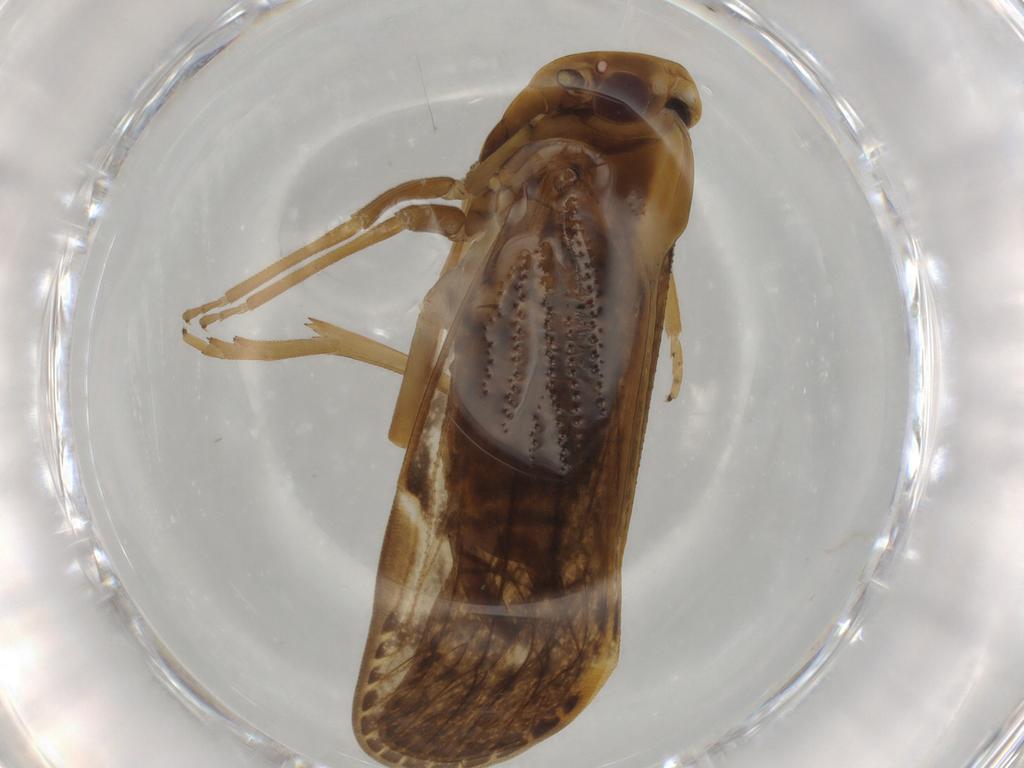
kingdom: Animalia
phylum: Arthropoda
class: Insecta
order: Hemiptera
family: Cixiidae
